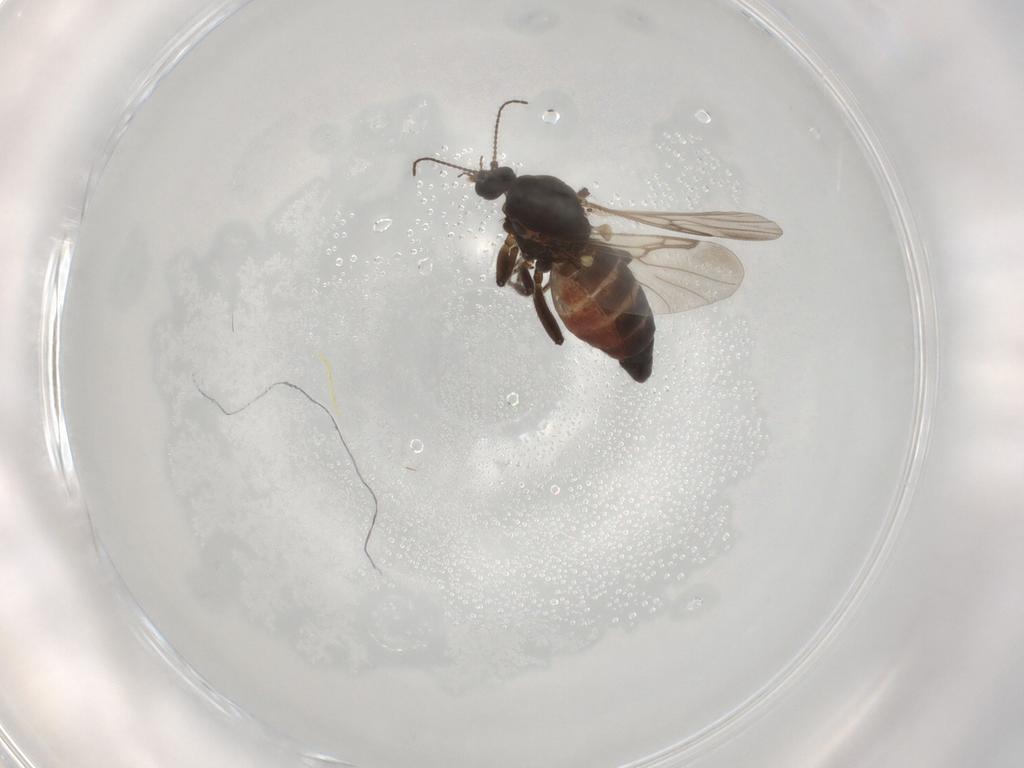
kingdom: Animalia
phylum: Arthropoda
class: Insecta
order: Diptera
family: Ceratopogonidae
